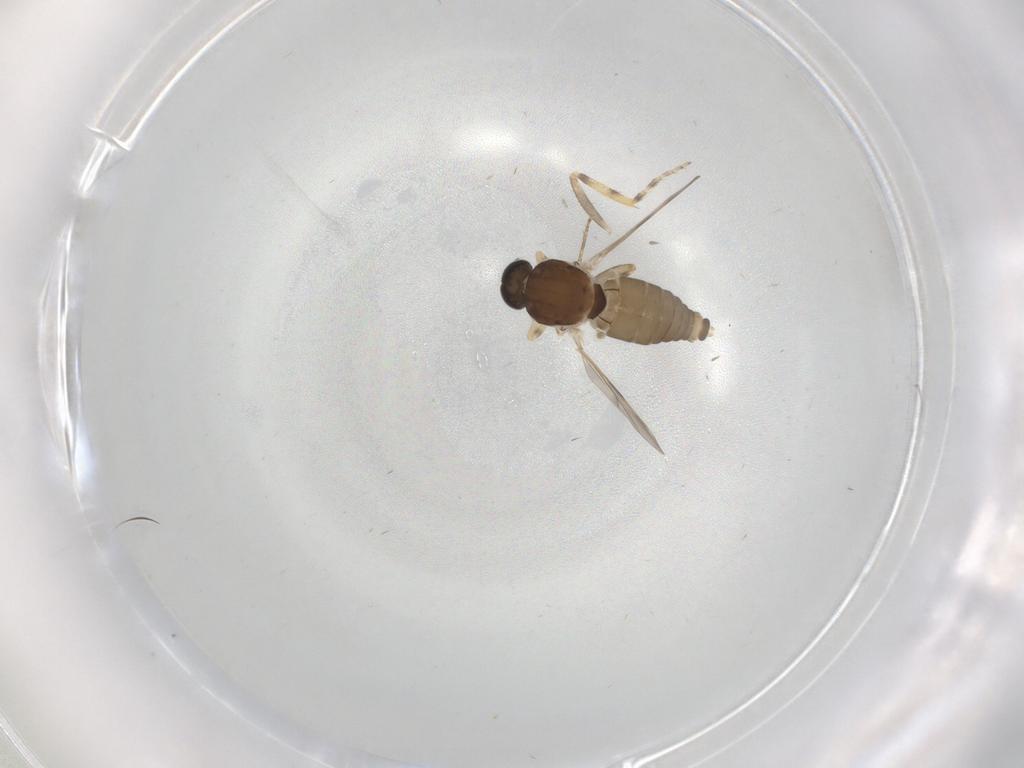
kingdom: Animalia
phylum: Arthropoda
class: Insecta
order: Diptera
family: Ceratopogonidae
